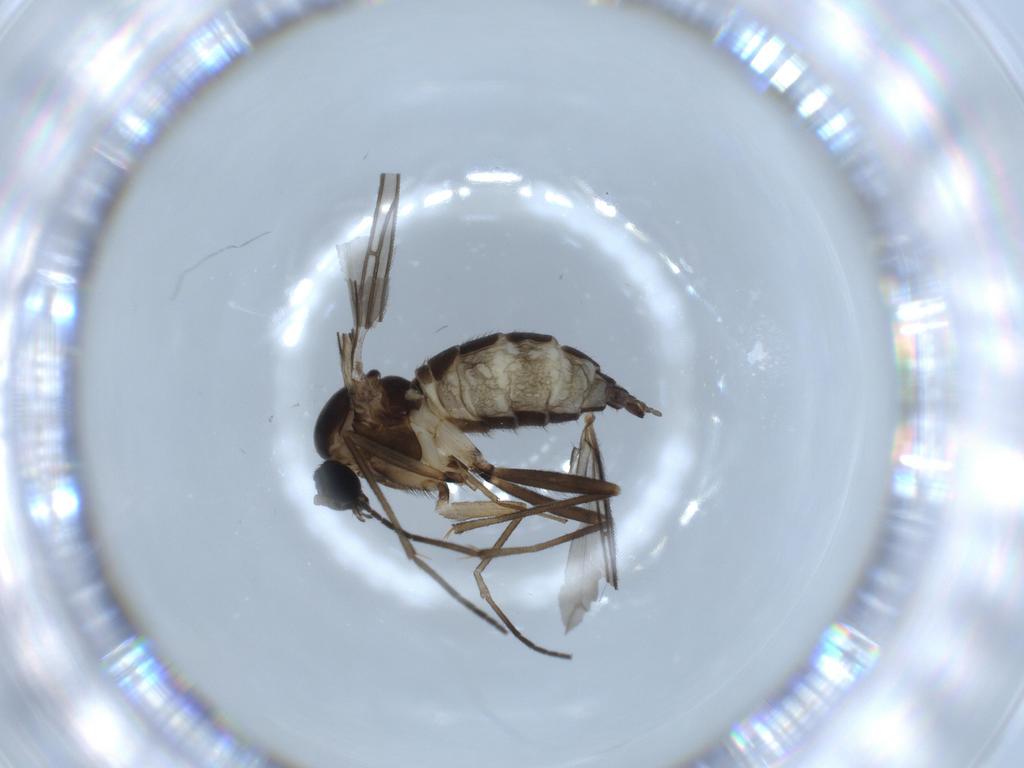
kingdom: Animalia
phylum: Arthropoda
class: Insecta
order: Diptera
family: Sciaridae
